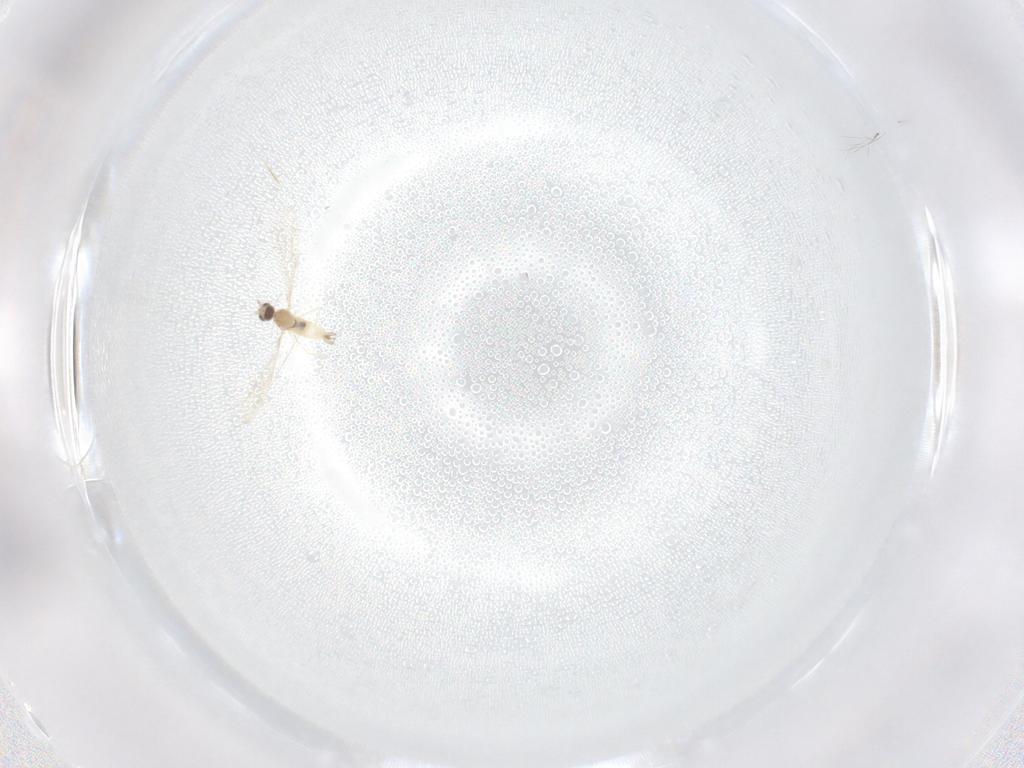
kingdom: Animalia
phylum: Arthropoda
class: Insecta
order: Diptera
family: Cecidomyiidae
